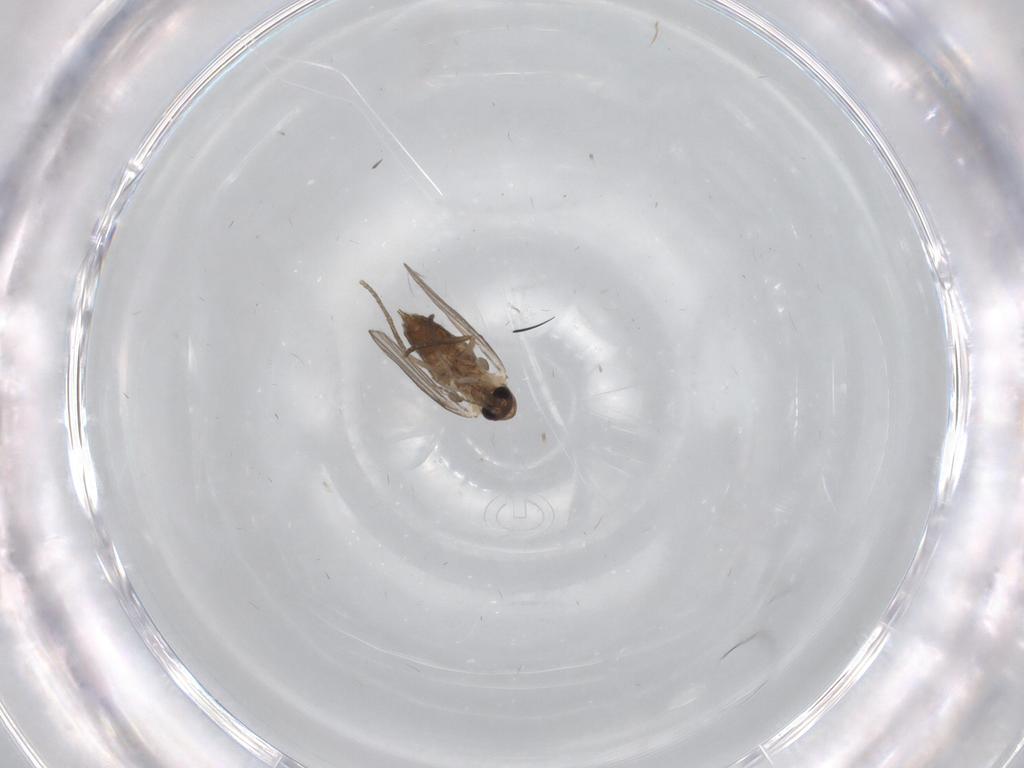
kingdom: Animalia
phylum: Arthropoda
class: Insecta
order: Diptera
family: Psychodidae
